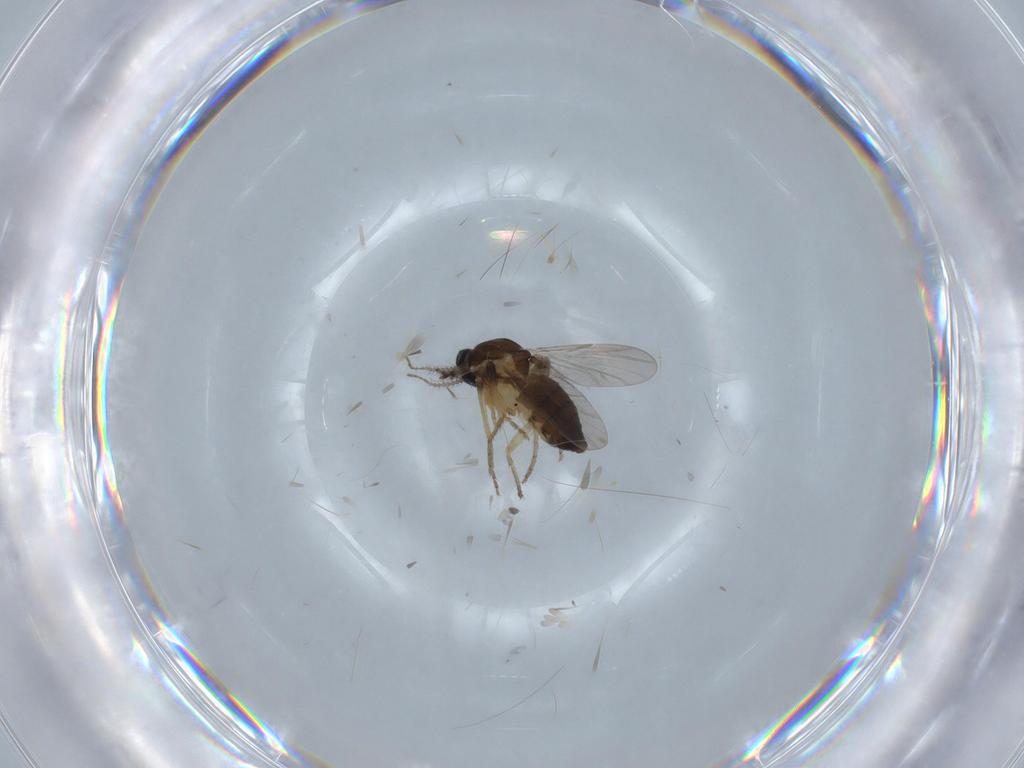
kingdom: Animalia
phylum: Arthropoda
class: Insecta
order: Diptera
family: Ceratopogonidae
